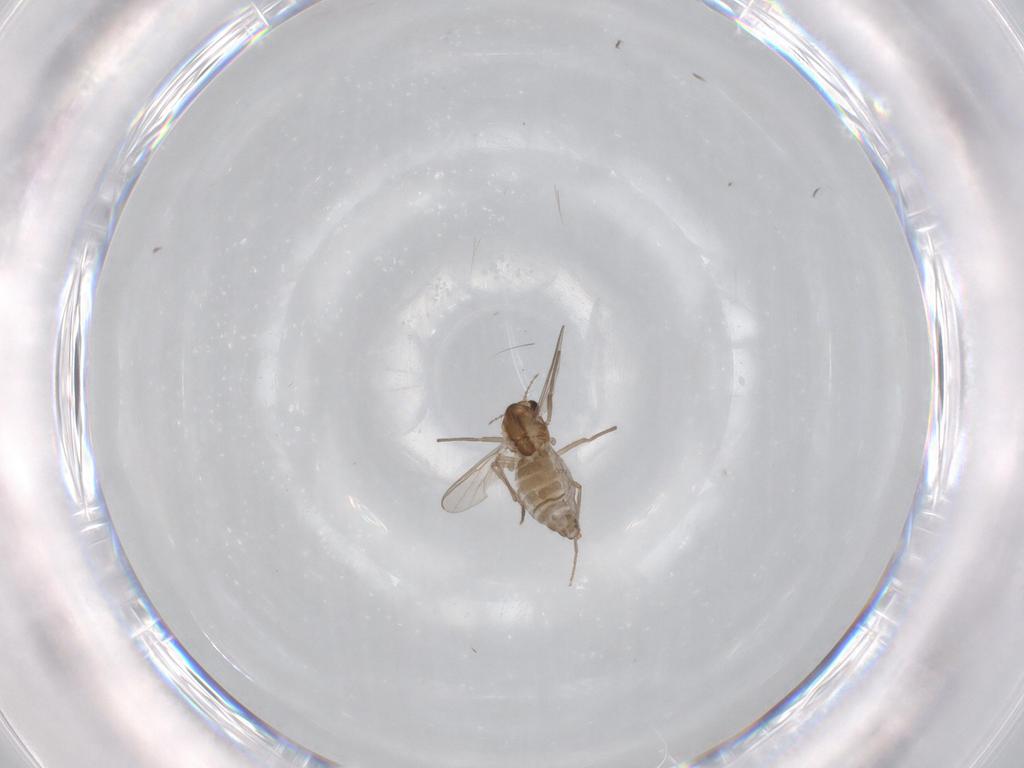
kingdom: Animalia
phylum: Arthropoda
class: Insecta
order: Diptera
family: Chironomidae
